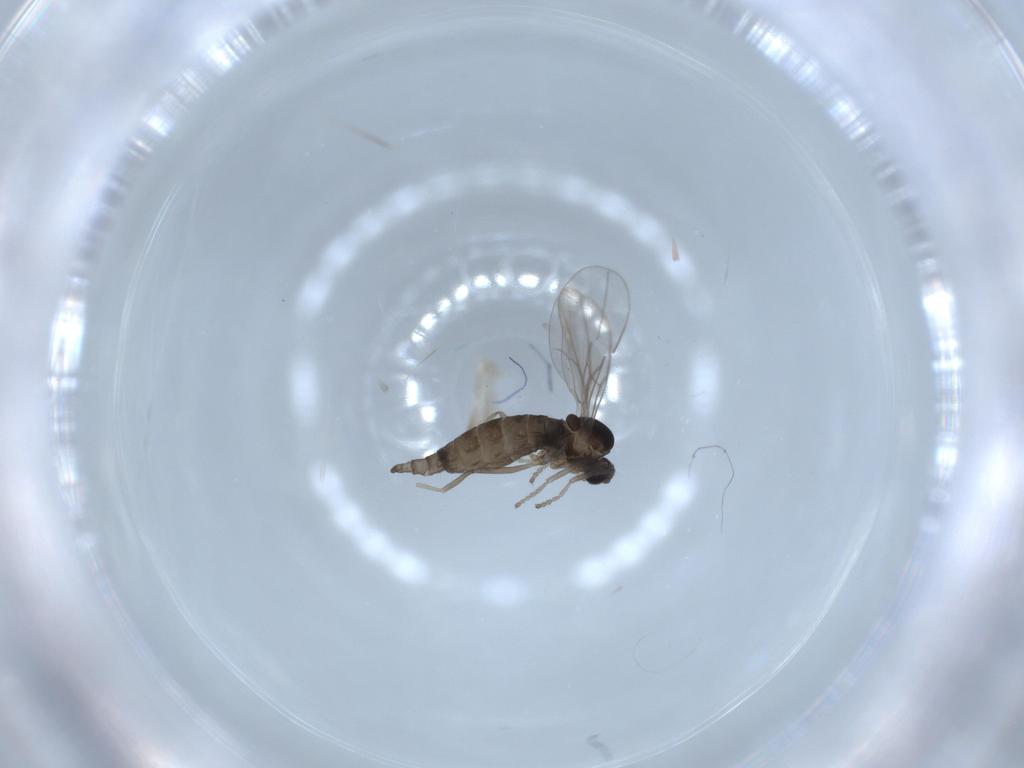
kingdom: Animalia
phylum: Arthropoda
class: Insecta
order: Diptera
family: Cecidomyiidae
